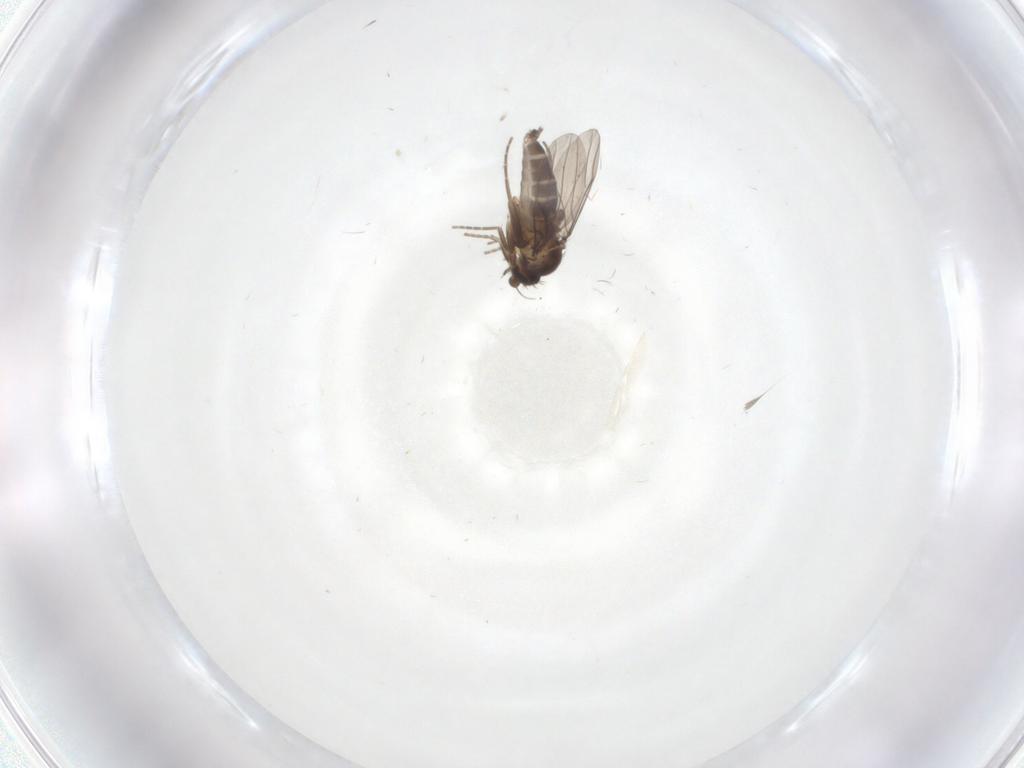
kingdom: Animalia
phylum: Arthropoda
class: Insecta
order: Diptera
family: Phoridae
